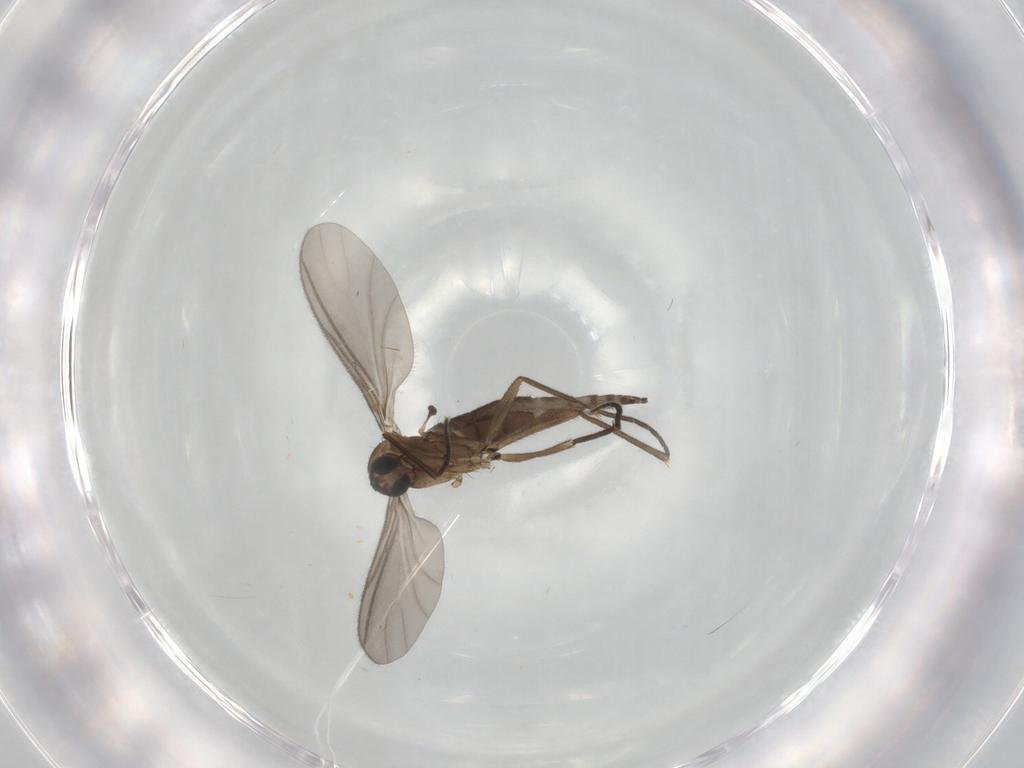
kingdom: Animalia
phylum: Arthropoda
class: Insecta
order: Diptera
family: Sciaridae
